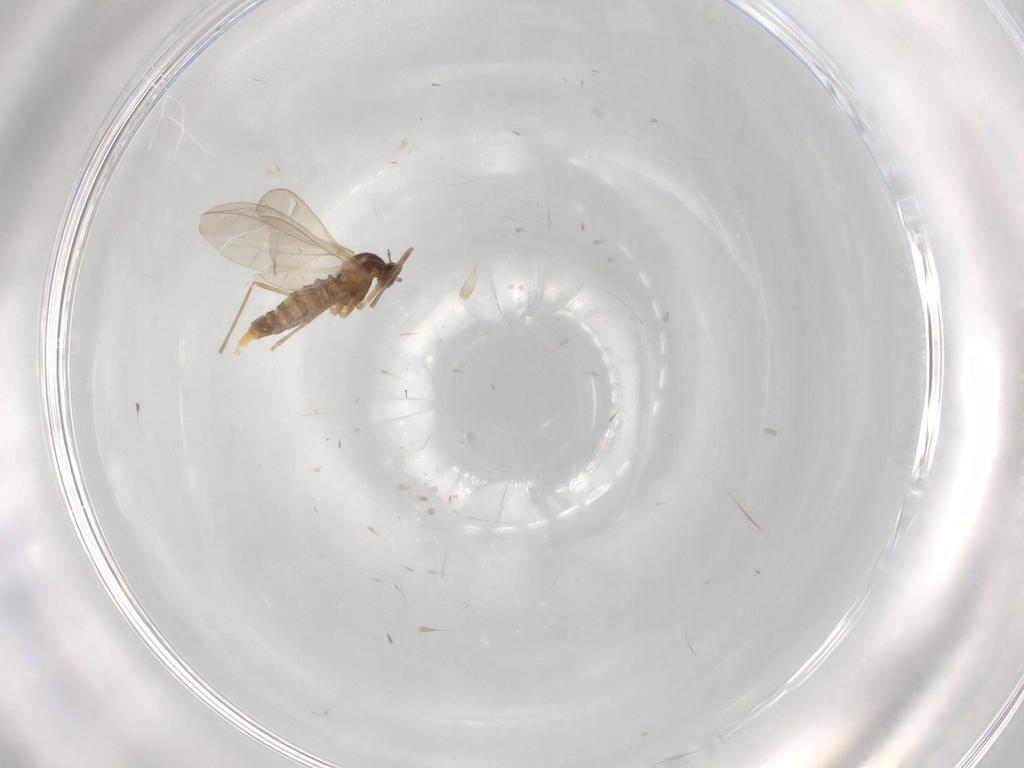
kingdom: Animalia
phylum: Arthropoda
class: Insecta
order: Diptera
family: Cecidomyiidae
